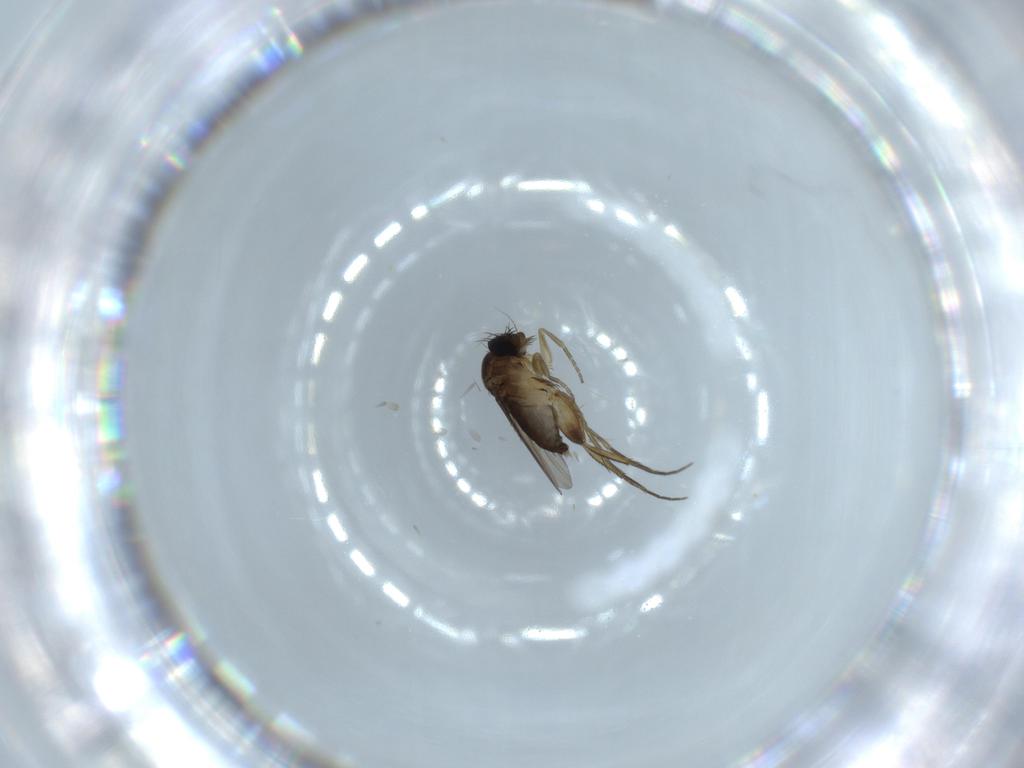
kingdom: Animalia
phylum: Arthropoda
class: Insecta
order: Diptera
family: Phoridae
